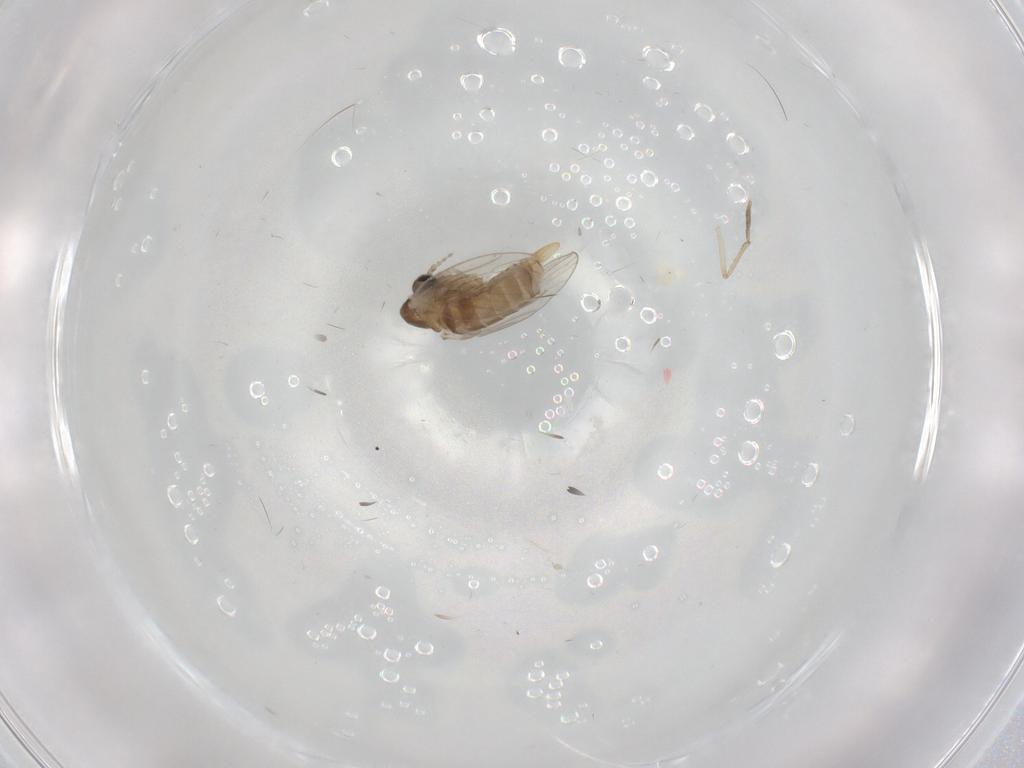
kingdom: Animalia
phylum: Arthropoda
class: Insecta
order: Diptera
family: Psychodidae
